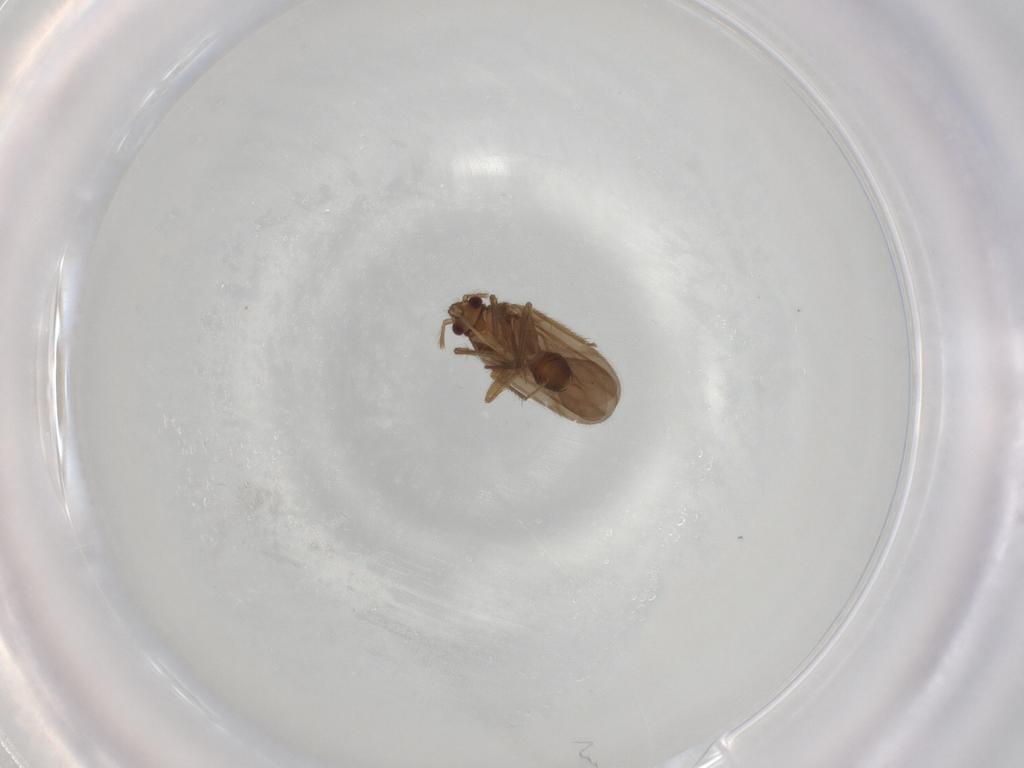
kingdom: Animalia
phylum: Arthropoda
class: Insecta
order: Hemiptera
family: Ceratocombidae
